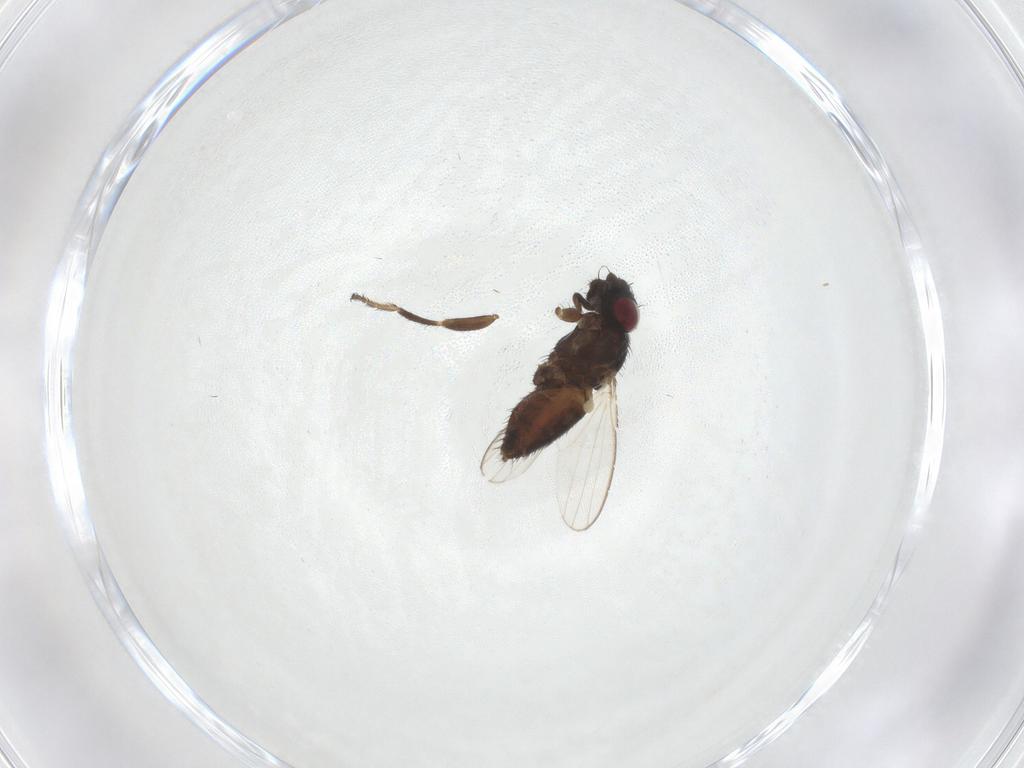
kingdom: Animalia
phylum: Arthropoda
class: Insecta
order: Diptera
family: Milichiidae
